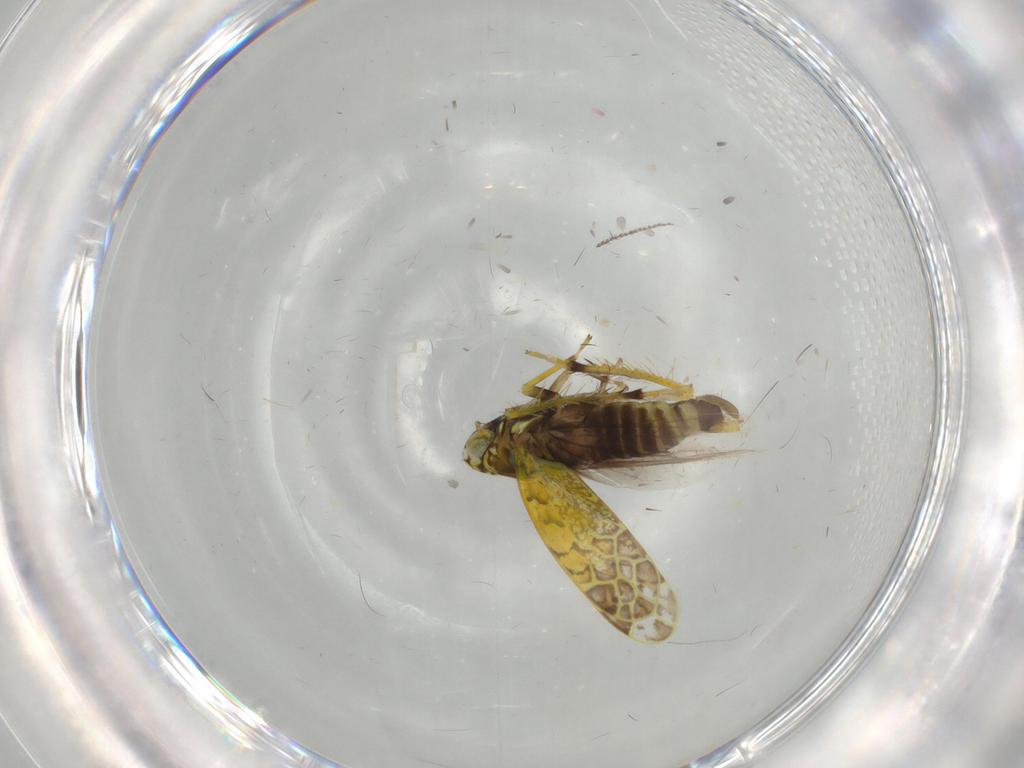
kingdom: Animalia
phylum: Arthropoda
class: Insecta
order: Hemiptera
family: Cicadellidae
